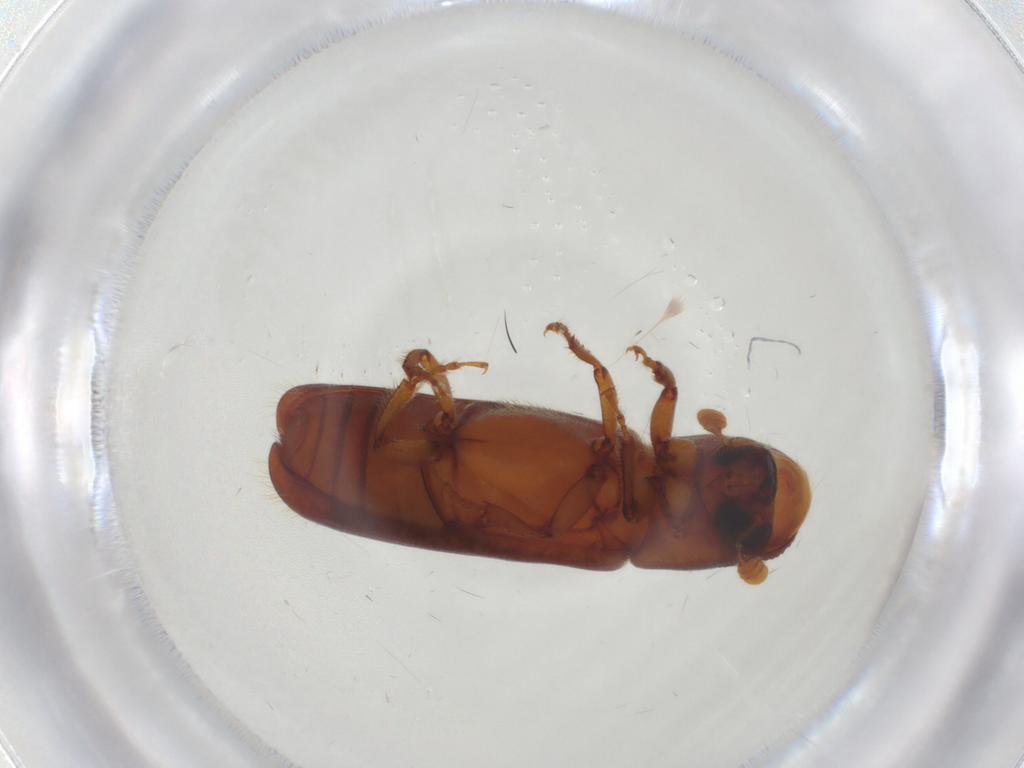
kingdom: Animalia
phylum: Arthropoda
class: Insecta
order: Coleoptera
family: Curculionidae
